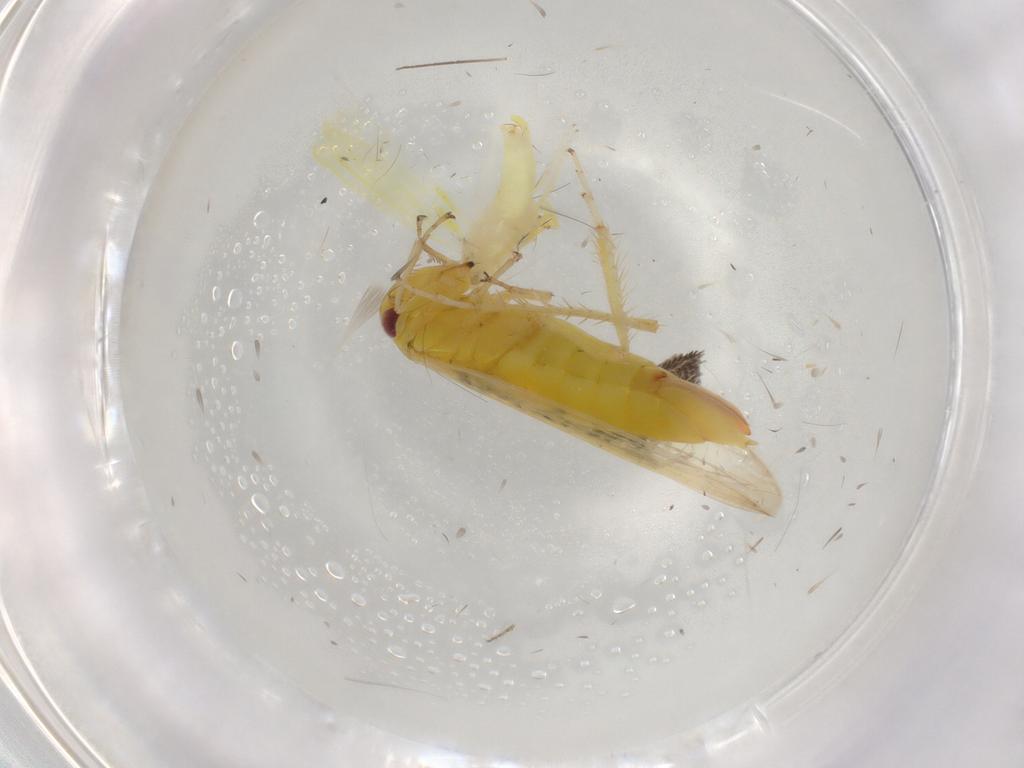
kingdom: Animalia
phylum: Arthropoda
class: Insecta
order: Hemiptera
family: Cicadellidae
